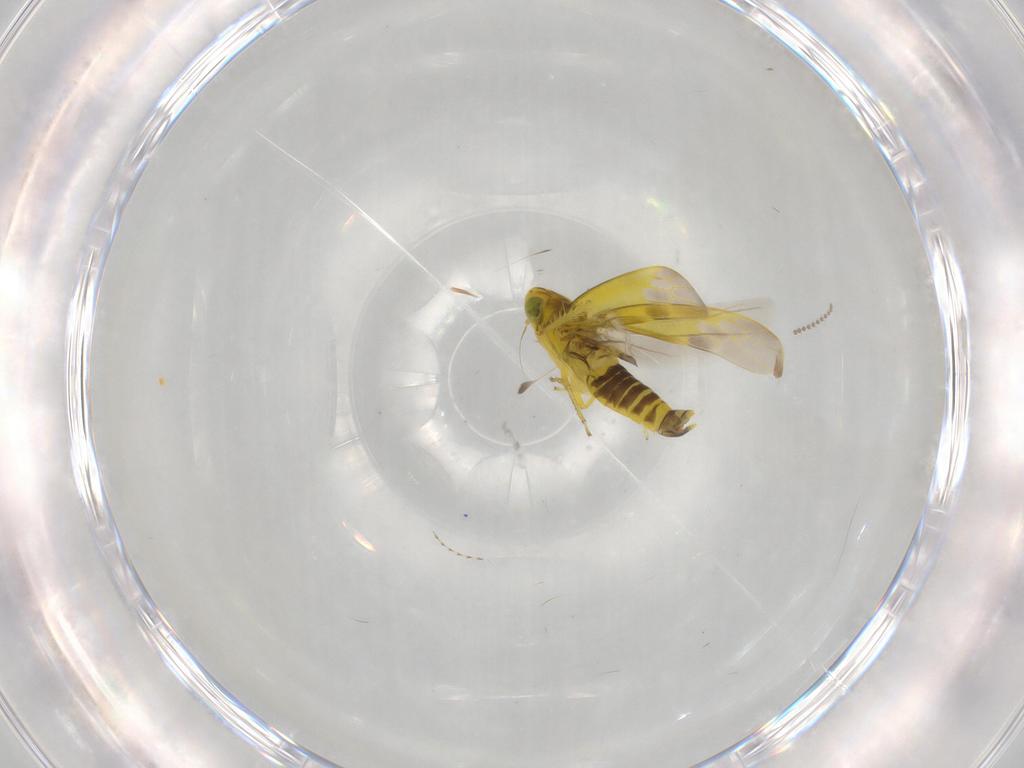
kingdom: Animalia
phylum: Arthropoda
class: Insecta
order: Hemiptera
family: Cicadellidae
